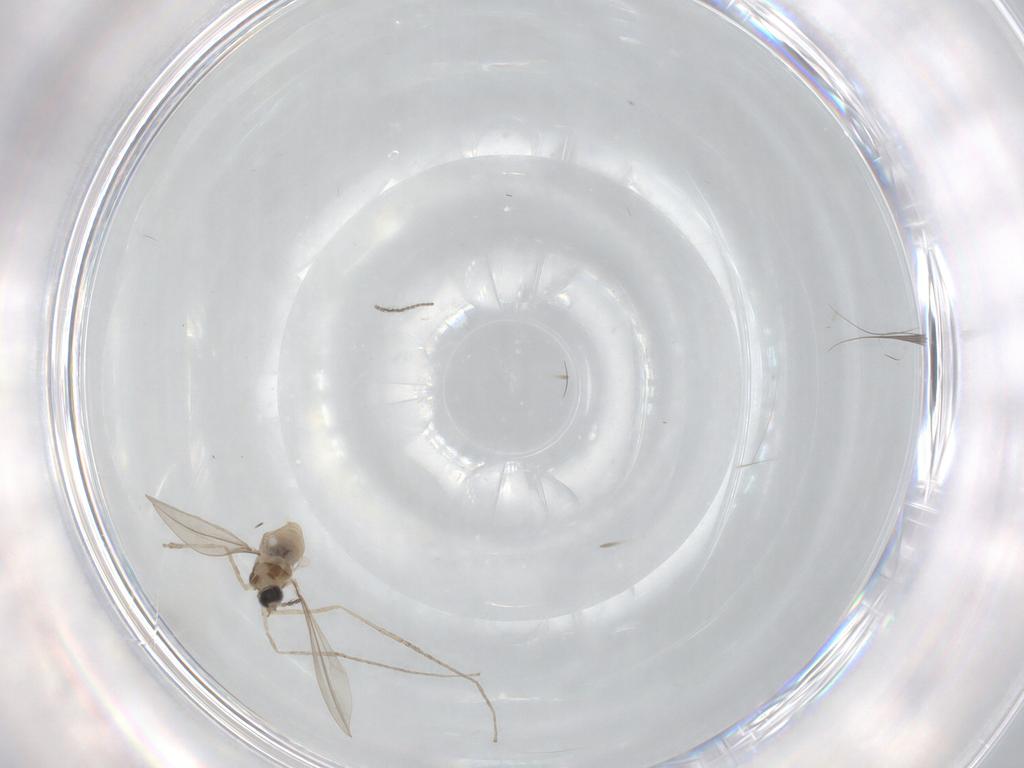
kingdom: Animalia
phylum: Arthropoda
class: Insecta
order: Diptera
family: Cecidomyiidae
